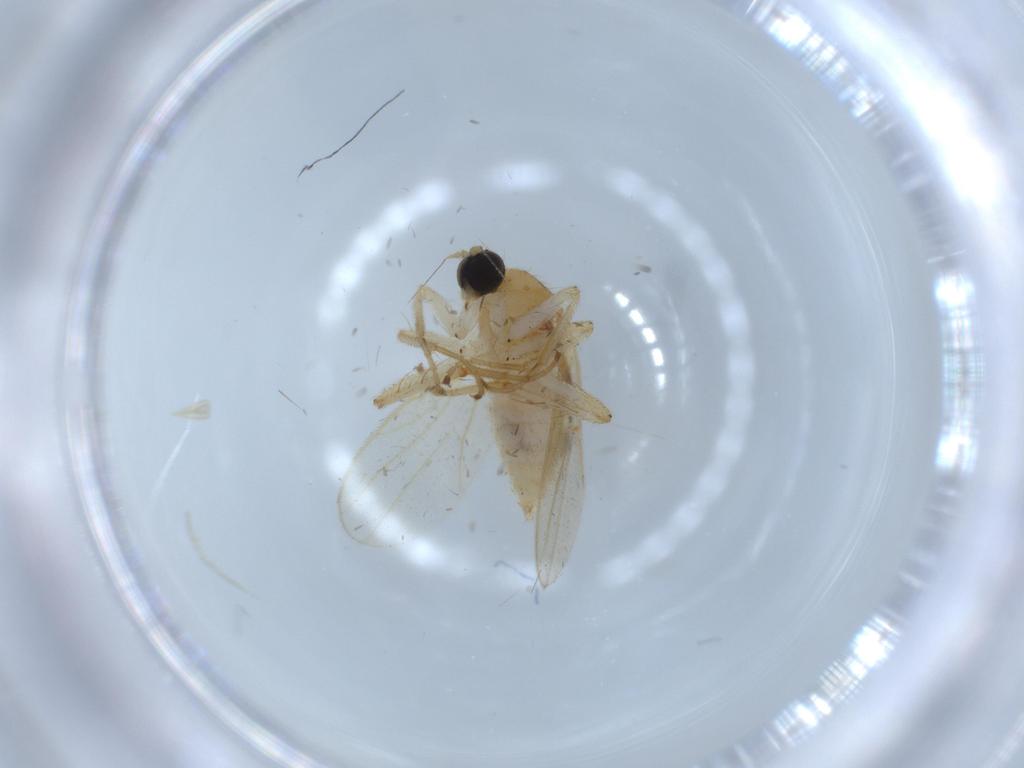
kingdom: Animalia
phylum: Arthropoda
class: Insecta
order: Diptera
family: Hybotidae
